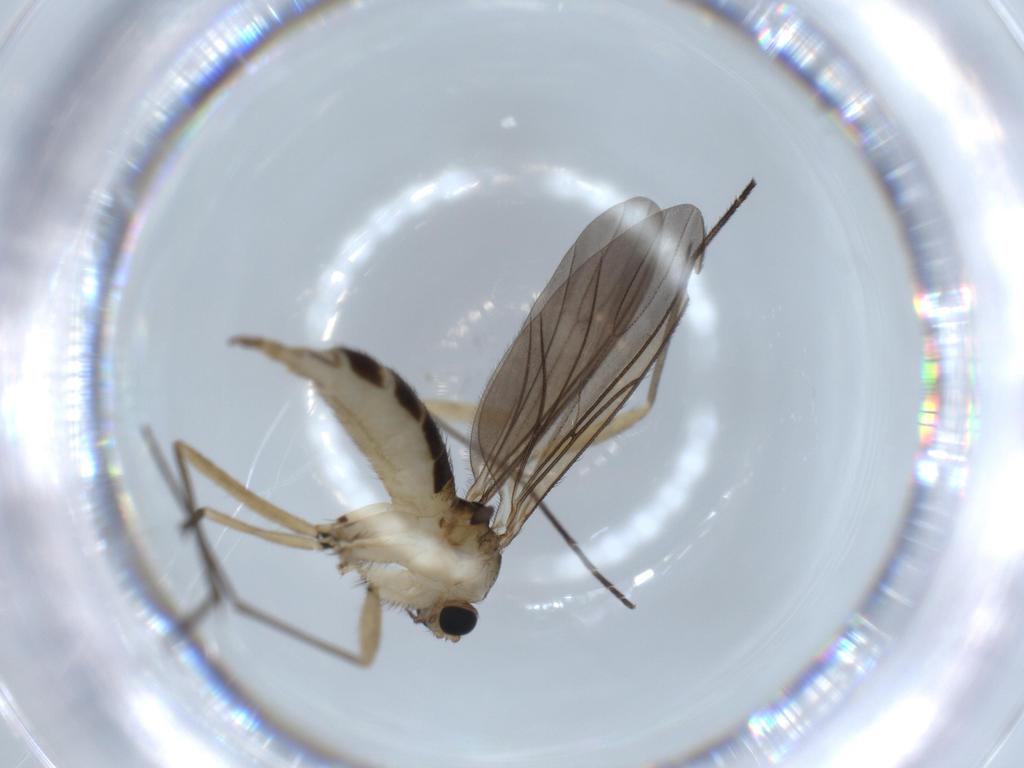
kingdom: Animalia
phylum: Arthropoda
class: Insecta
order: Diptera
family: Sciaridae
